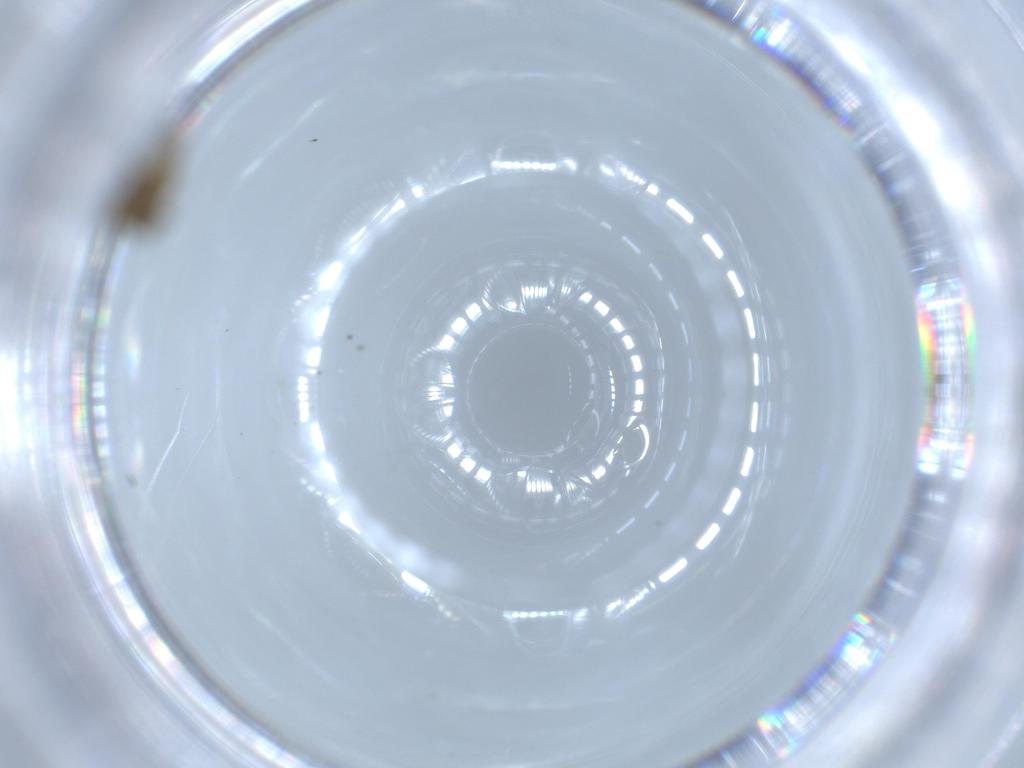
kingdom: Animalia
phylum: Arthropoda
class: Insecta
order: Diptera
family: Chironomidae
